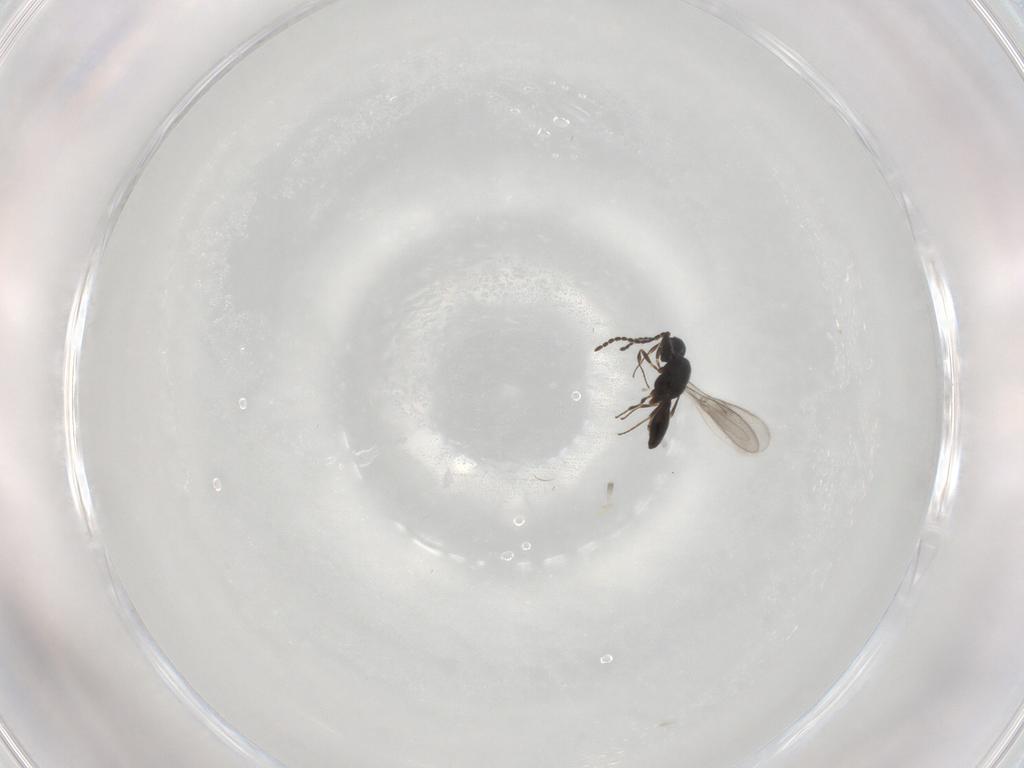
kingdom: Animalia
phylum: Arthropoda
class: Insecta
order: Hymenoptera
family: Scelionidae
